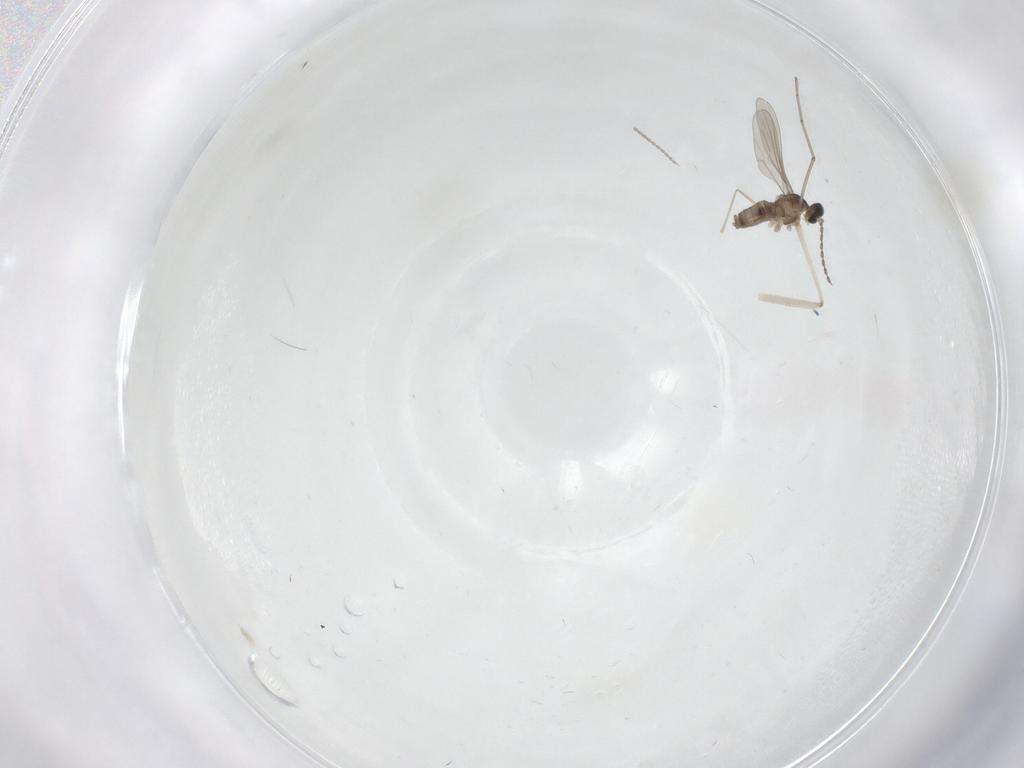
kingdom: Animalia
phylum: Arthropoda
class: Insecta
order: Diptera
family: Cecidomyiidae
